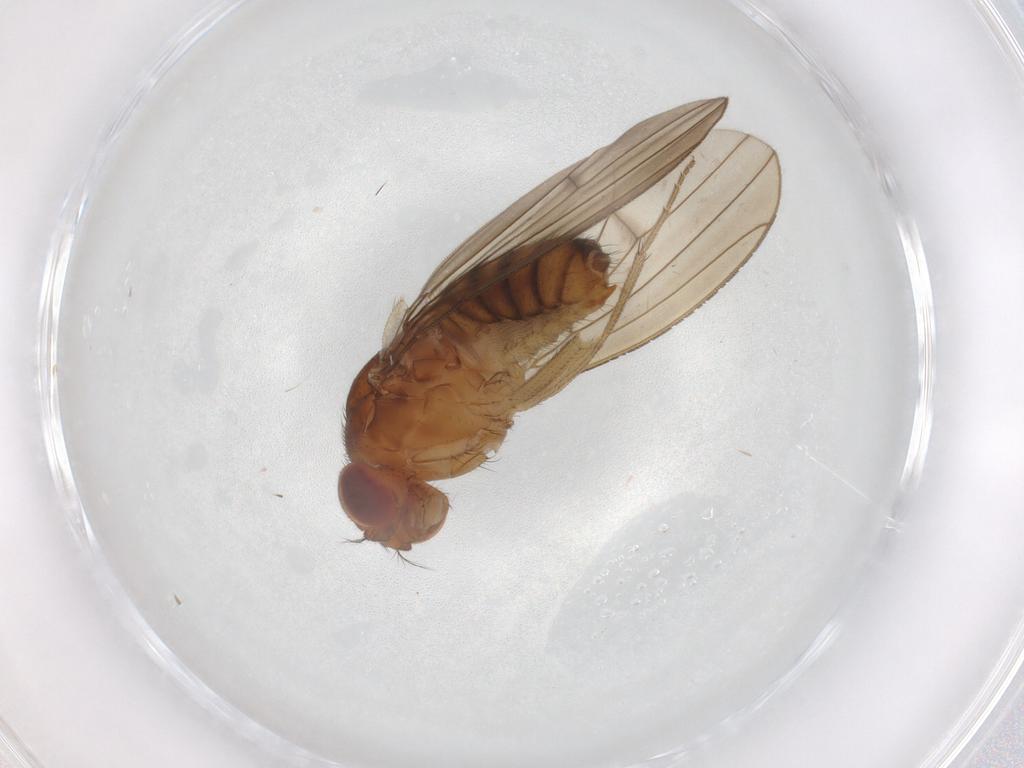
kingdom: Animalia
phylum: Arthropoda
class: Insecta
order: Diptera
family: Drosophilidae
